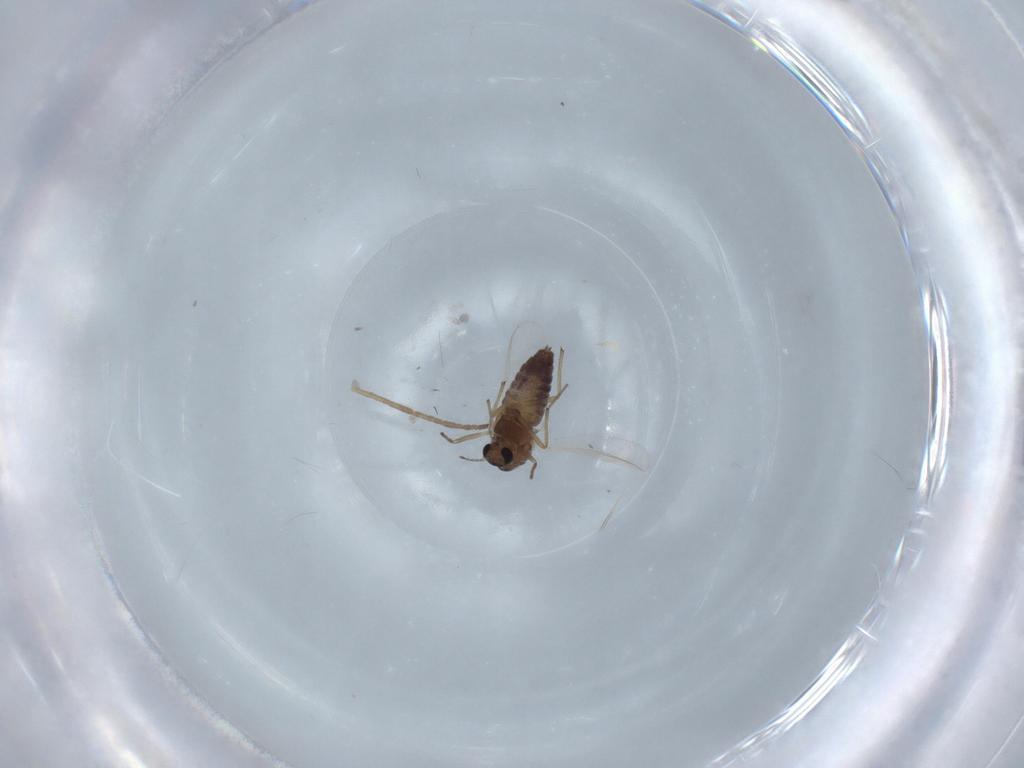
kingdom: Animalia
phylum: Arthropoda
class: Insecta
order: Diptera
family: Chironomidae
